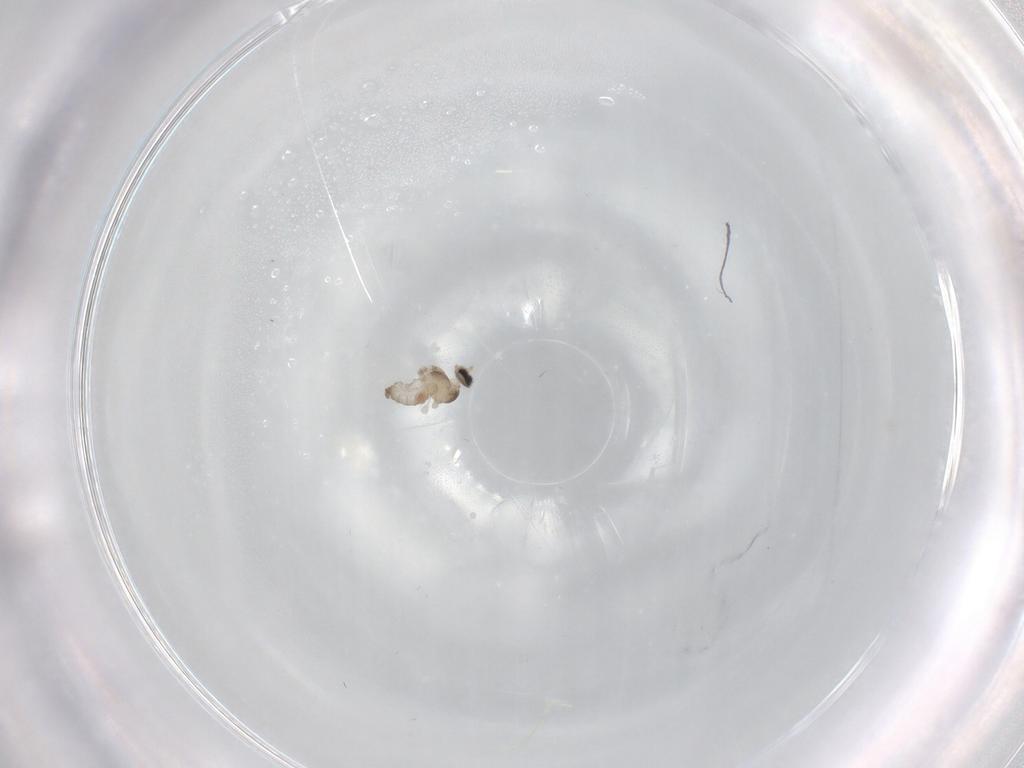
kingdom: Animalia
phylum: Arthropoda
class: Insecta
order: Diptera
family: Cecidomyiidae
